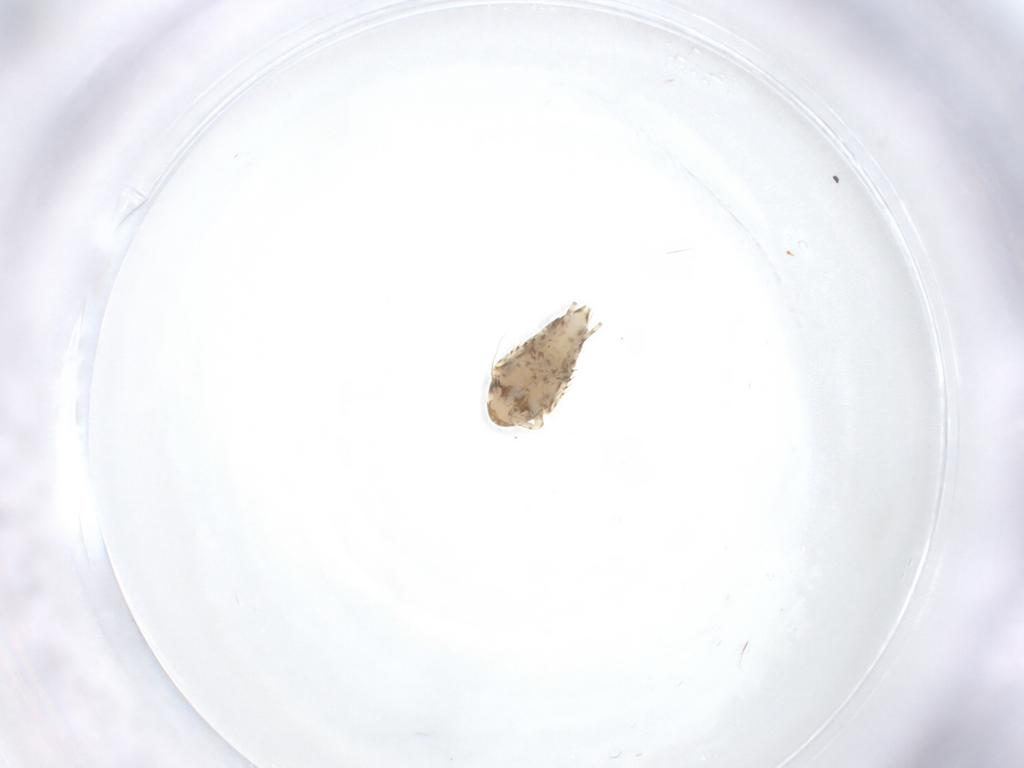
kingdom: Animalia
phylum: Arthropoda
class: Insecta
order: Hemiptera
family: Cicadellidae
